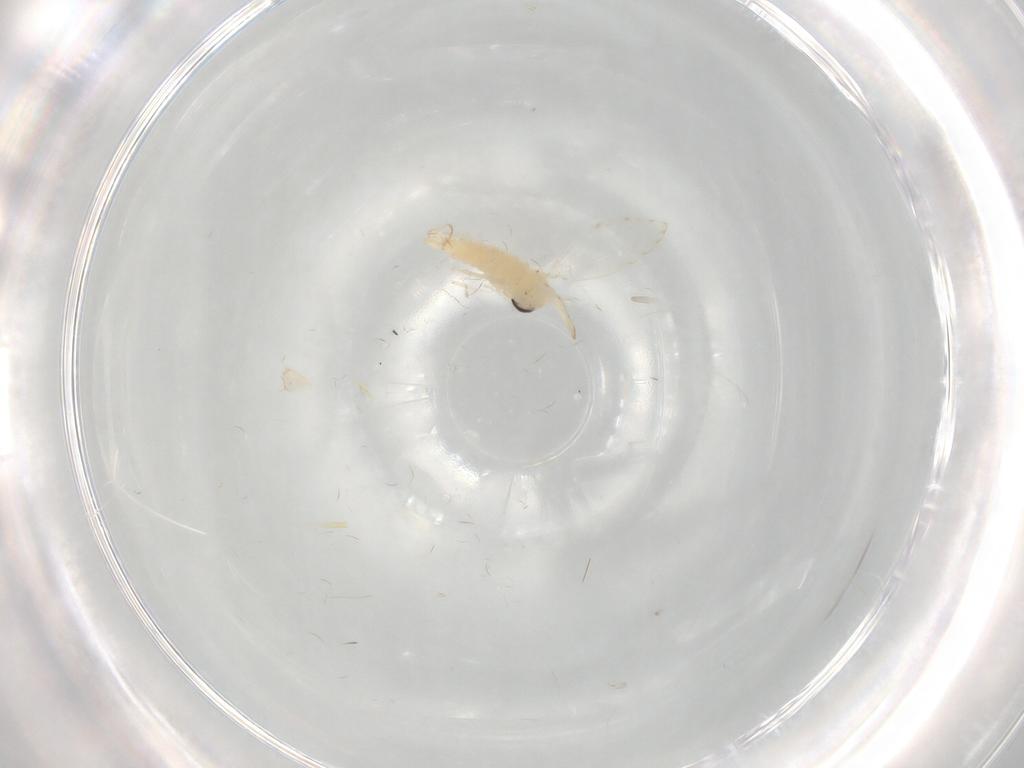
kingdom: Animalia
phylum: Arthropoda
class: Insecta
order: Diptera
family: Psychodidae
